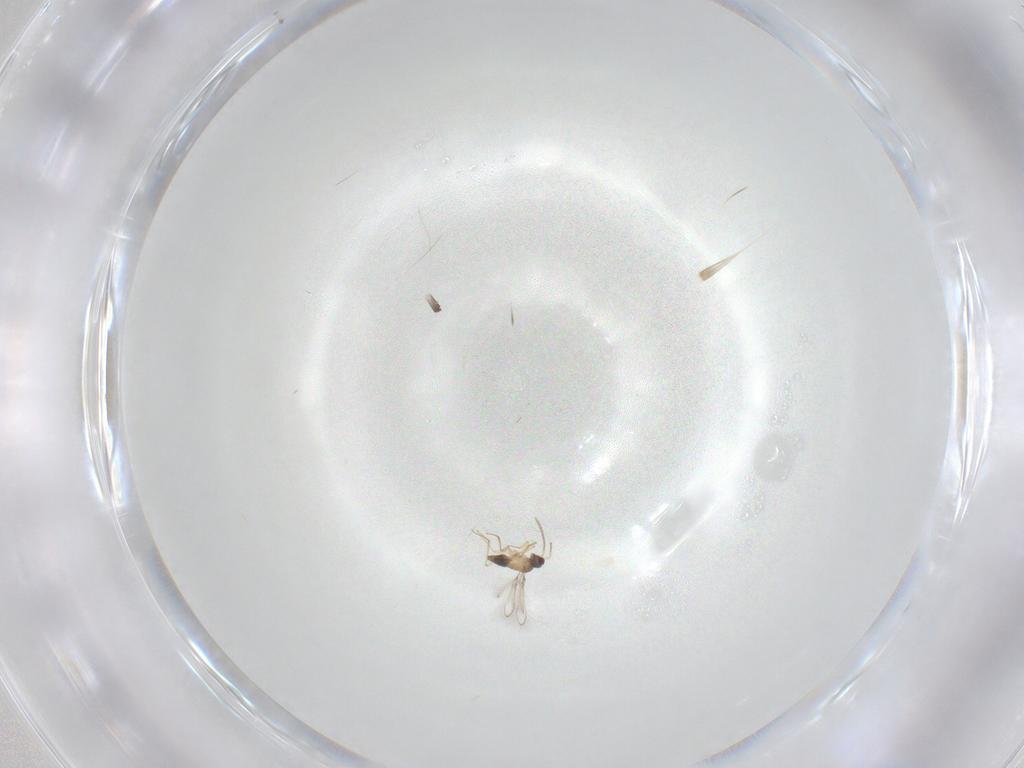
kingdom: Animalia
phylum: Arthropoda
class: Insecta
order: Hymenoptera
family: Mymaridae
